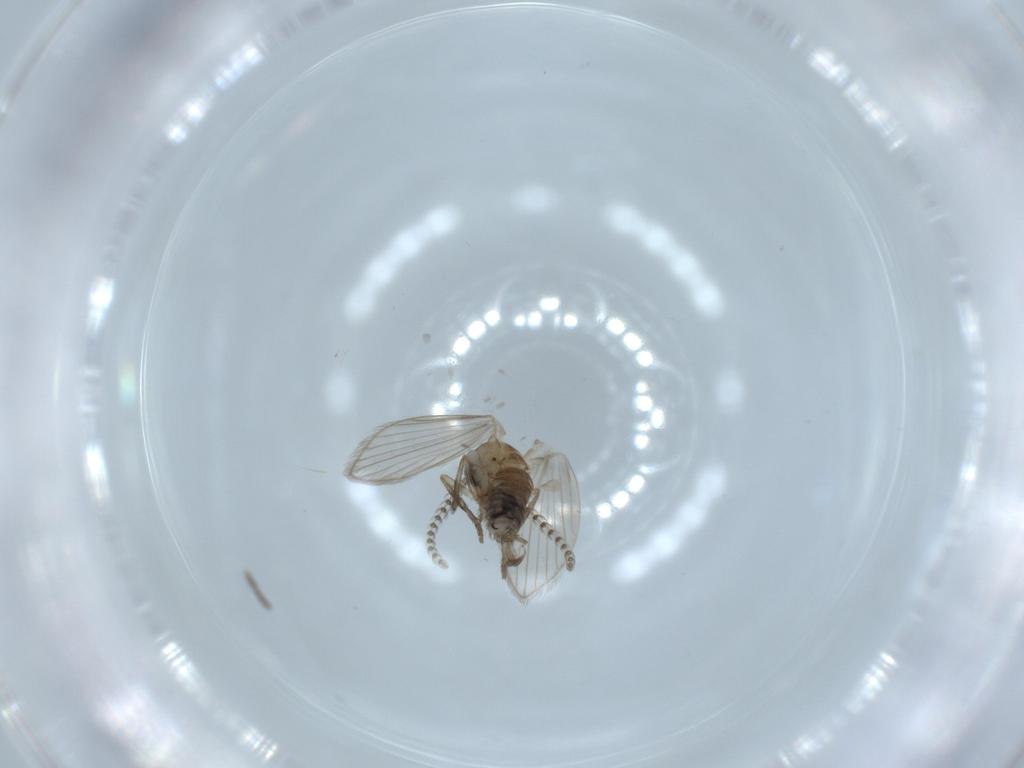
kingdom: Animalia
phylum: Arthropoda
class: Insecta
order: Diptera
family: Psychodidae
